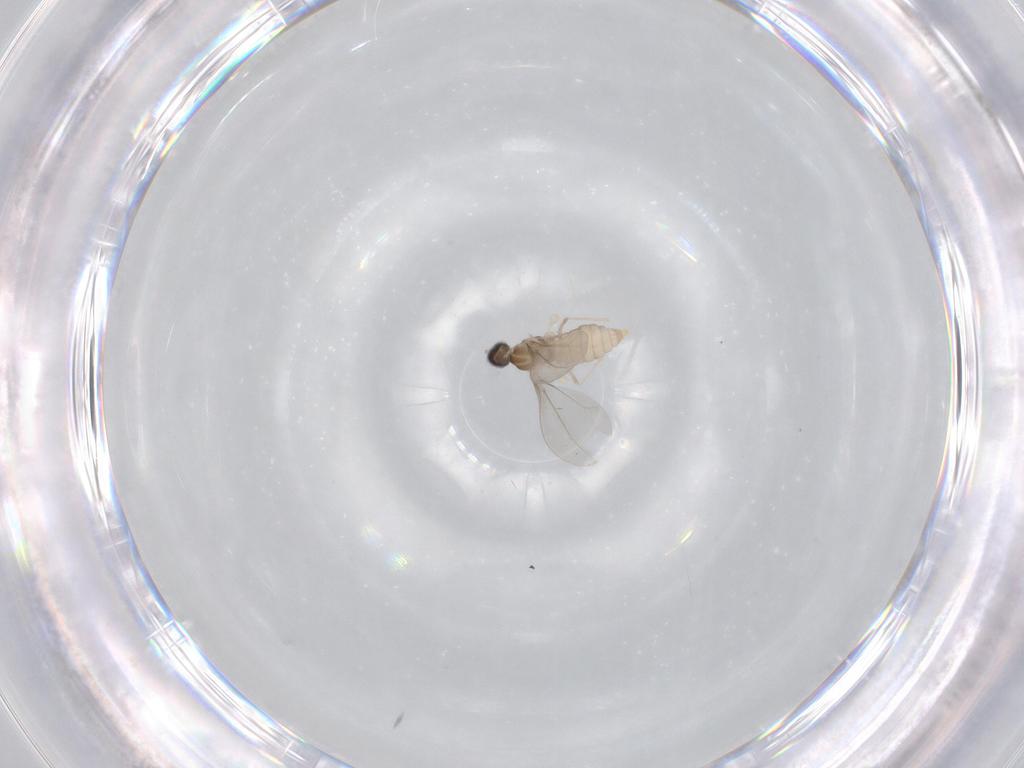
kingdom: Animalia
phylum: Arthropoda
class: Insecta
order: Diptera
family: Cecidomyiidae
